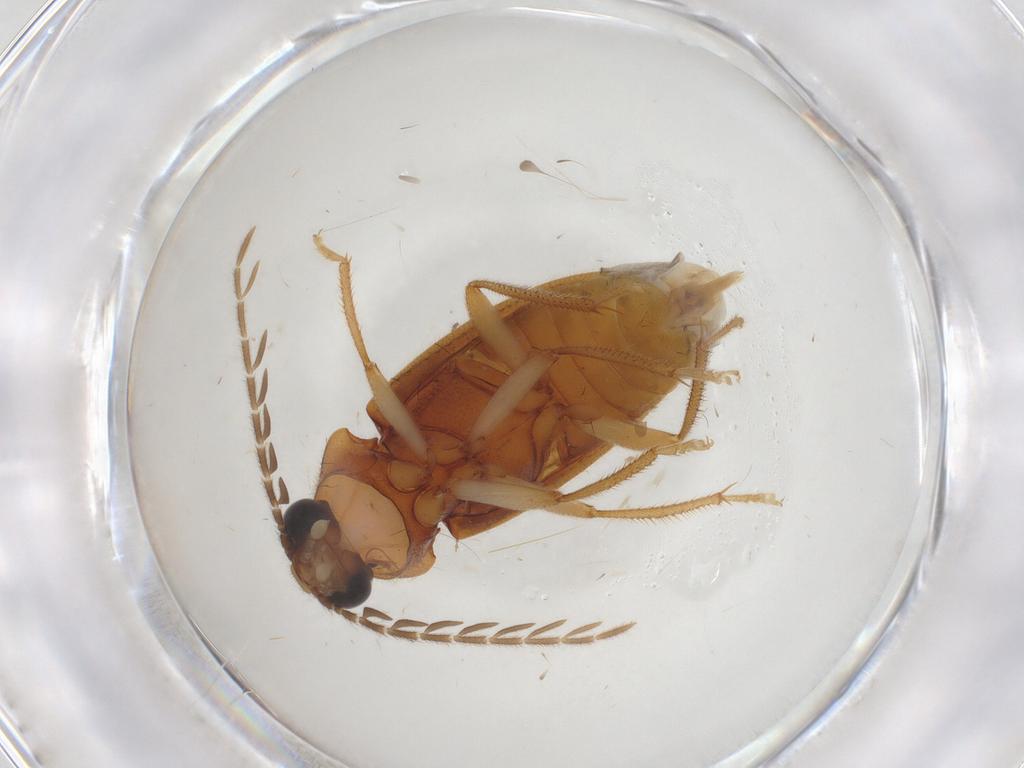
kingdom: Animalia
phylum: Arthropoda
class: Insecta
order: Coleoptera
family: Ptilodactylidae
